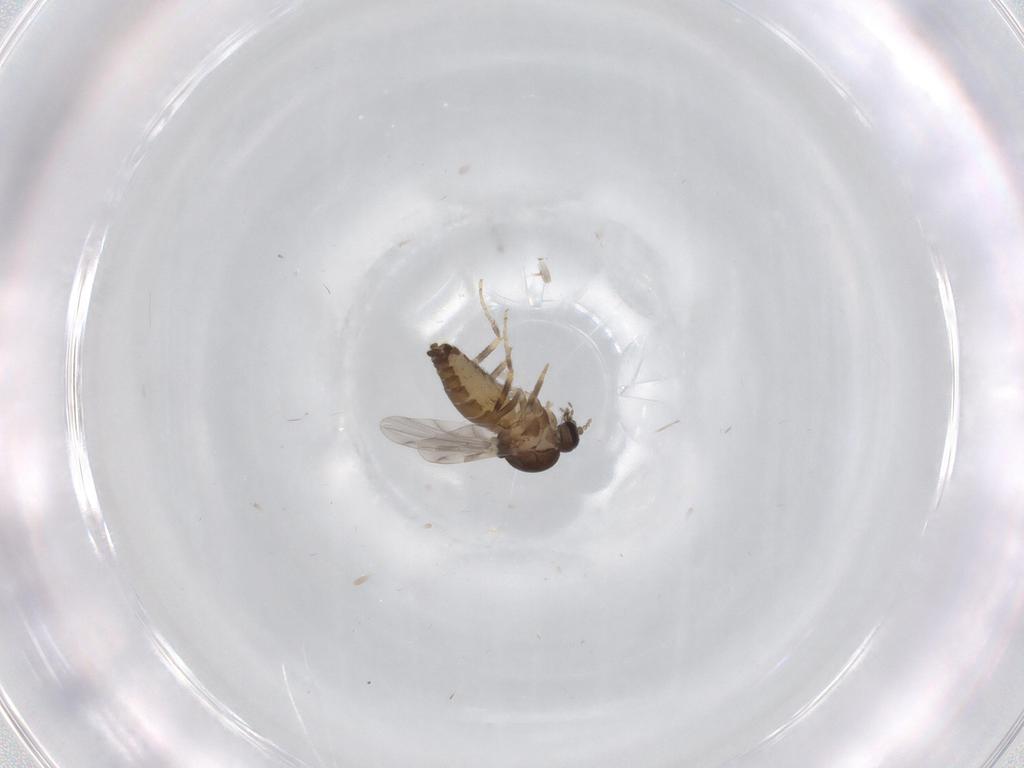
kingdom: Animalia
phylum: Arthropoda
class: Insecta
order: Diptera
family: Ceratopogonidae
